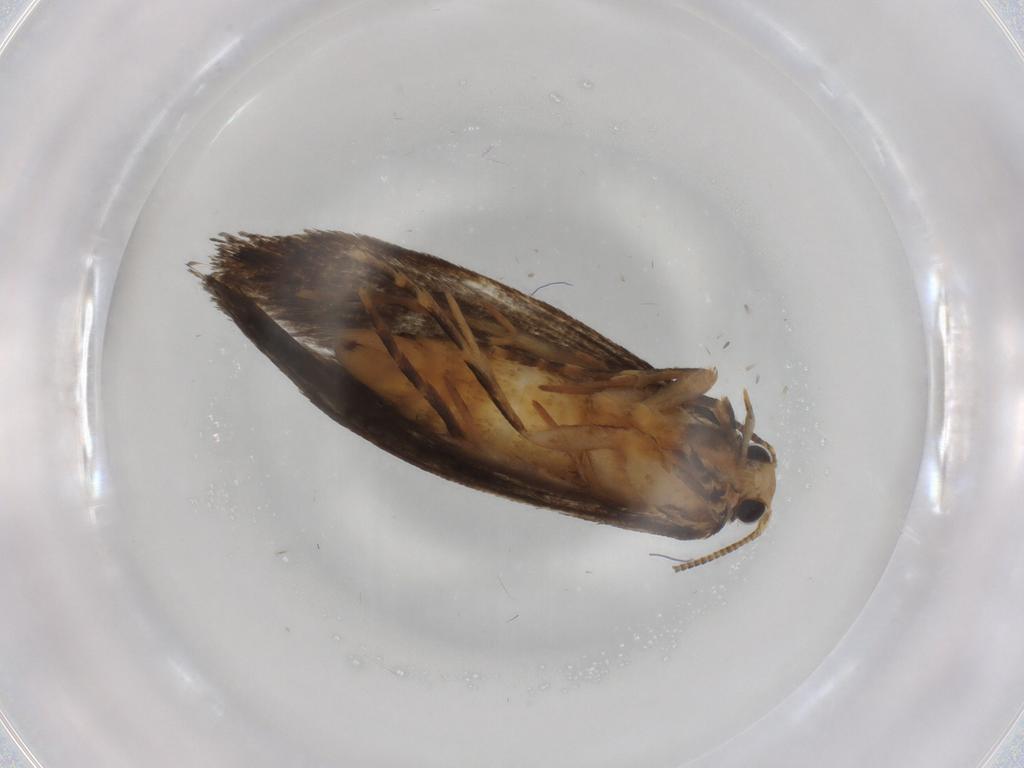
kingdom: Animalia
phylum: Arthropoda
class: Insecta
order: Lepidoptera
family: Tineidae
